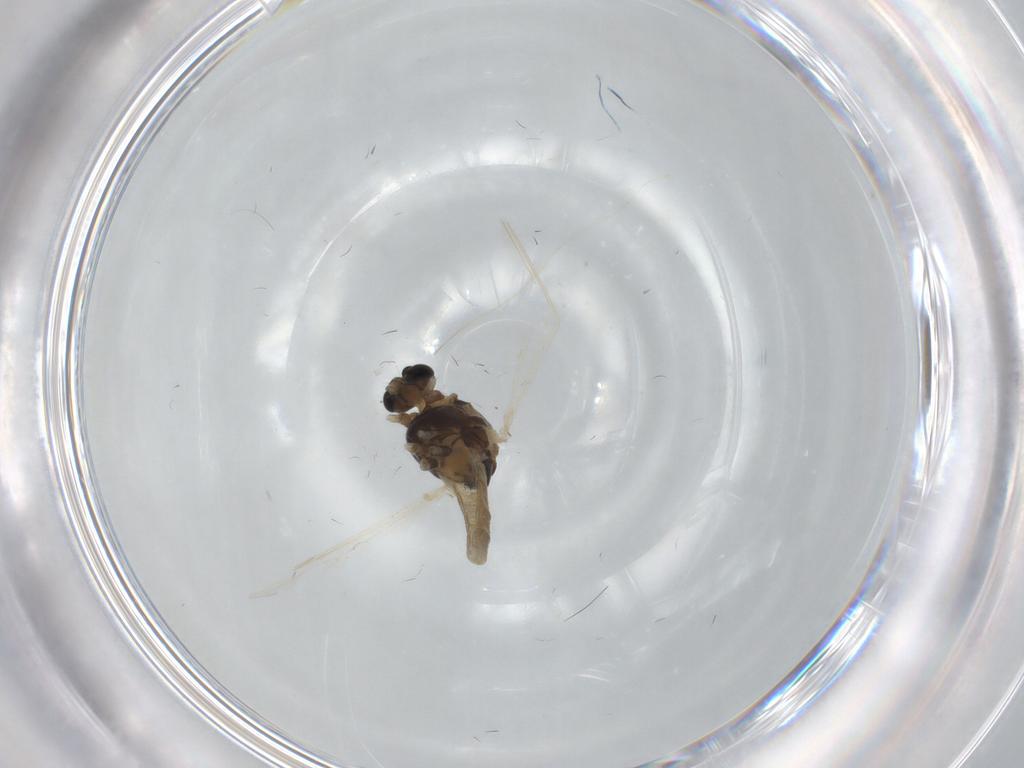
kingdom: Animalia
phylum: Arthropoda
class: Insecta
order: Diptera
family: Chironomidae
